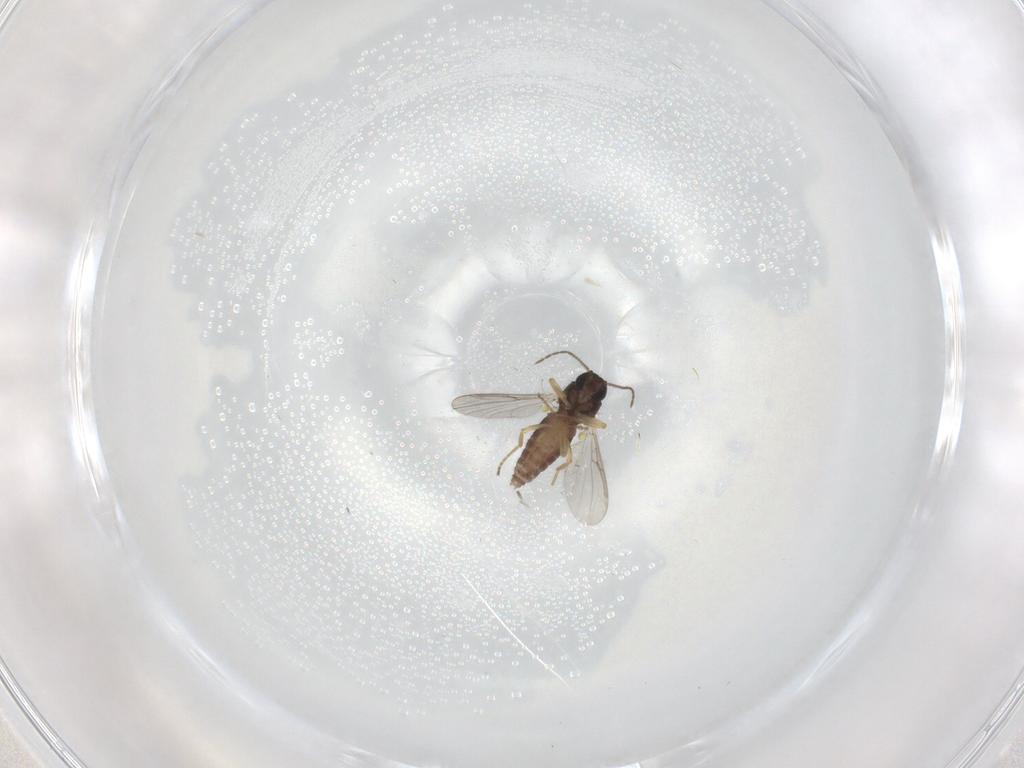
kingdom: Animalia
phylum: Arthropoda
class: Insecta
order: Diptera
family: Ceratopogonidae
